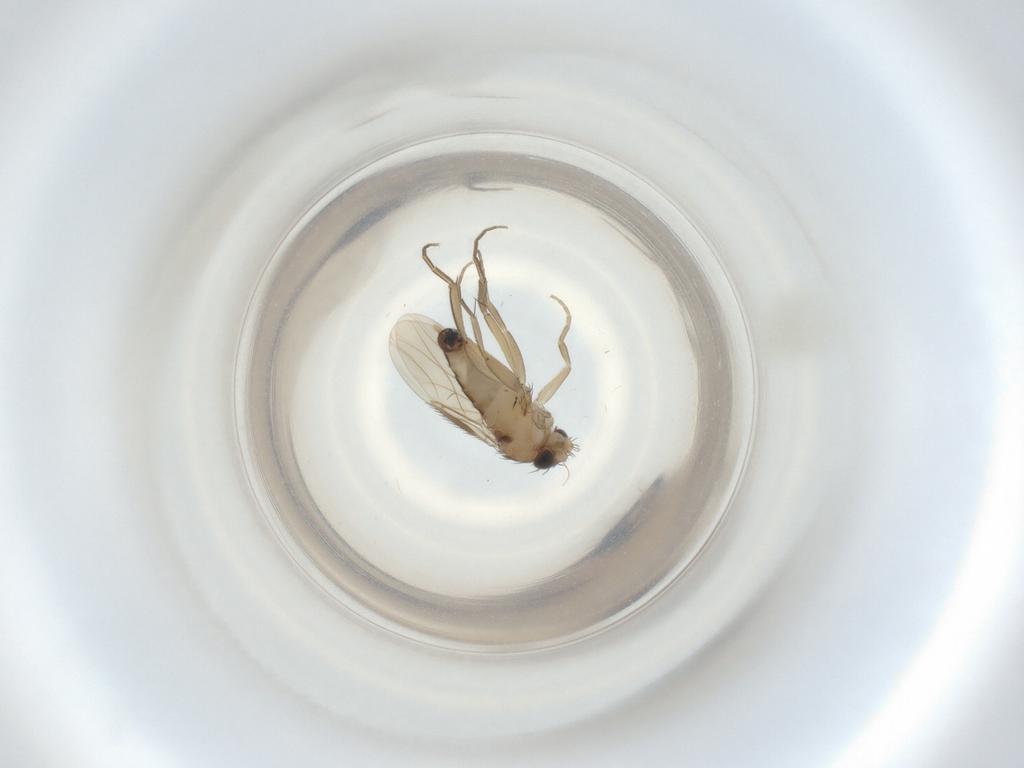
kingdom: Animalia
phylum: Arthropoda
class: Insecta
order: Diptera
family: Phoridae
